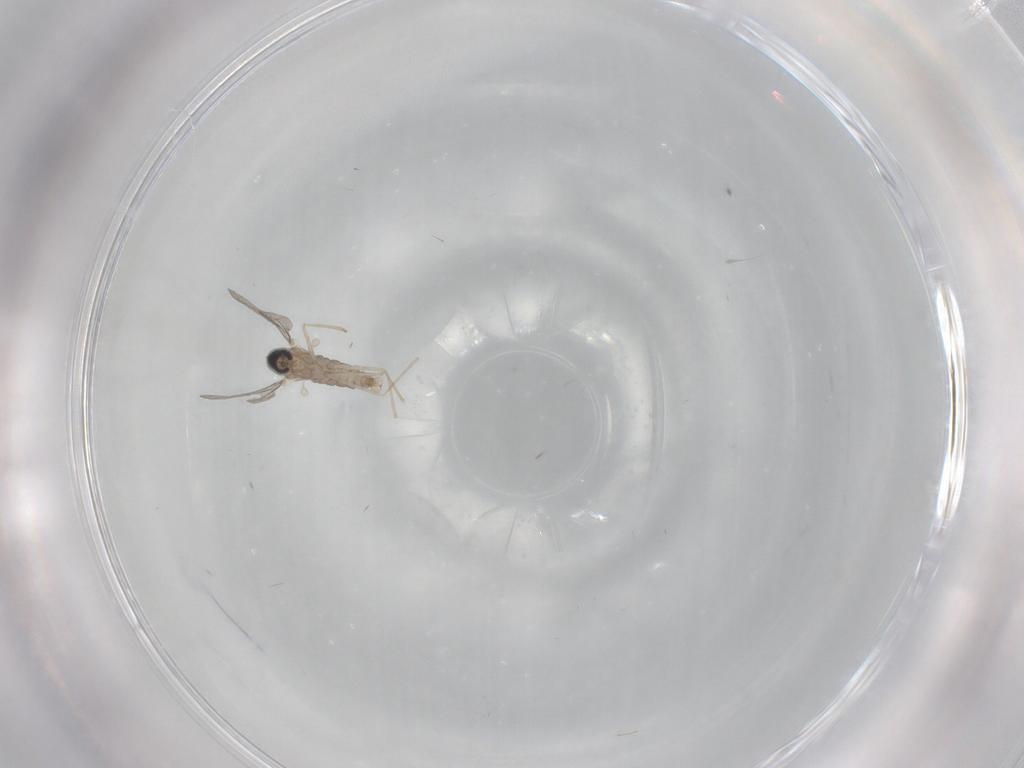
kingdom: Animalia
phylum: Arthropoda
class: Insecta
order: Diptera
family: Cecidomyiidae
